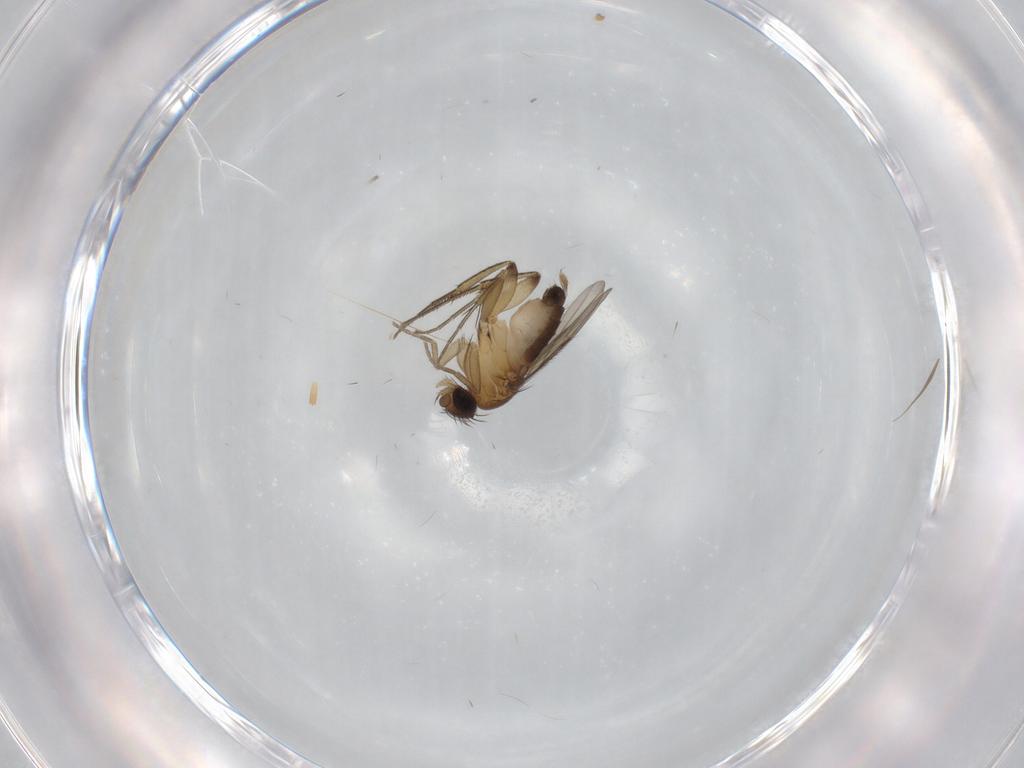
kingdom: Animalia
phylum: Arthropoda
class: Insecta
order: Diptera
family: Phoridae
